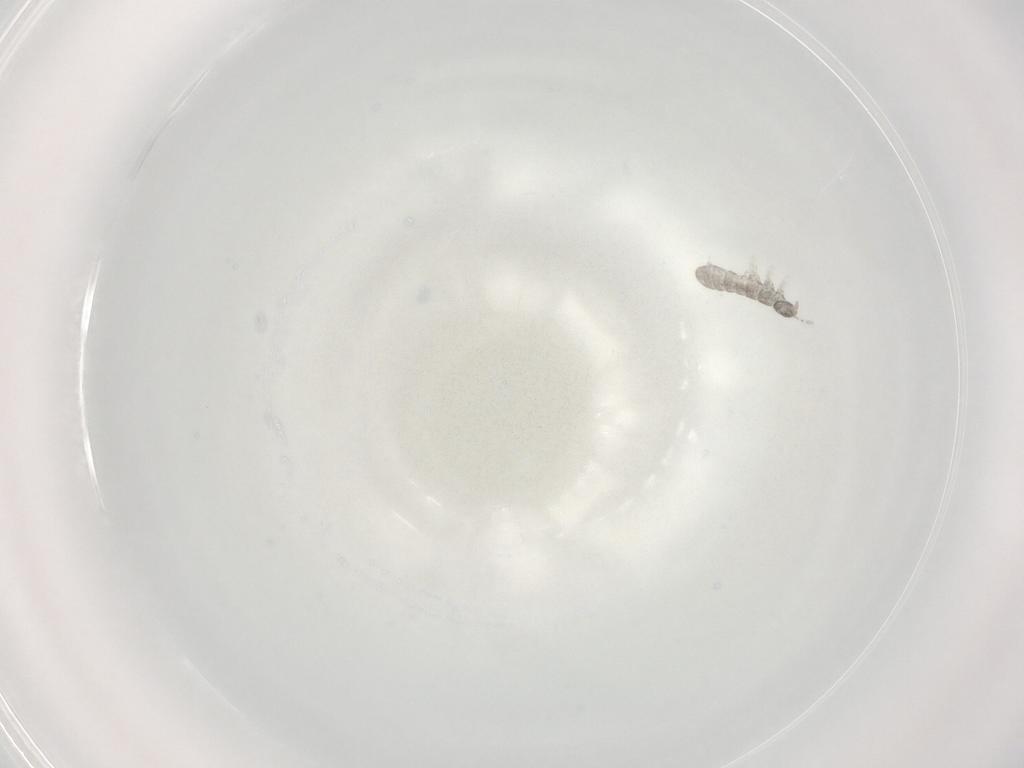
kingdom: Animalia
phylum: Arthropoda
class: Collembola
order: Entomobryomorpha
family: Isotomidae
